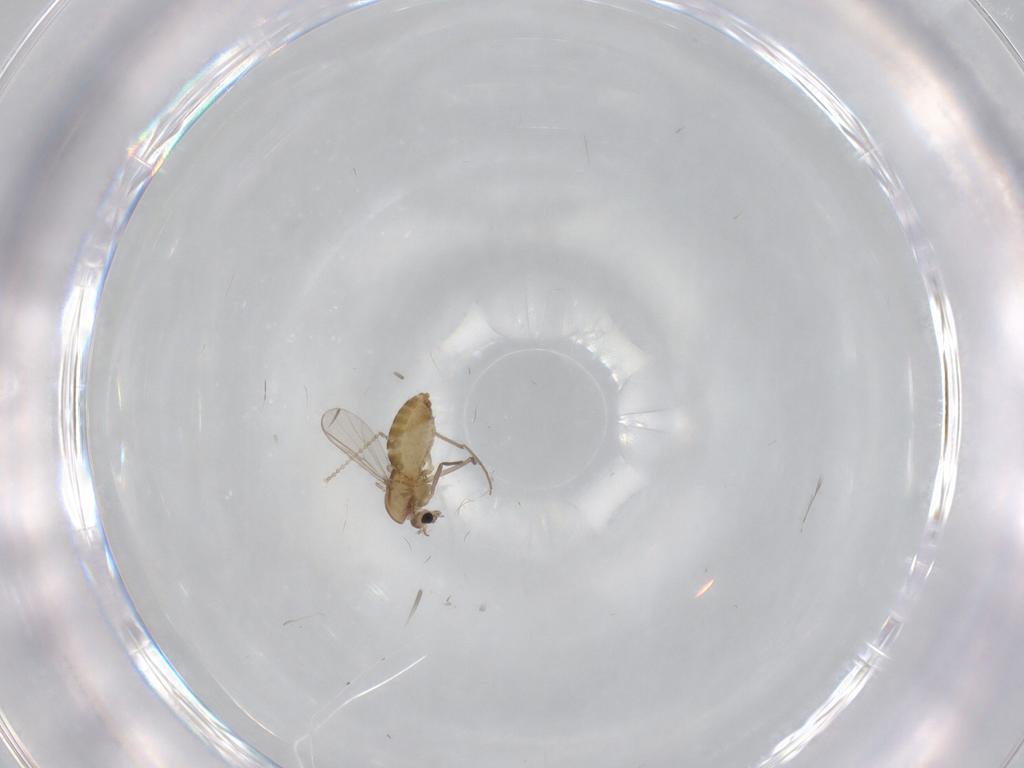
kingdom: Animalia
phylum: Arthropoda
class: Insecta
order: Diptera
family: Chironomidae
